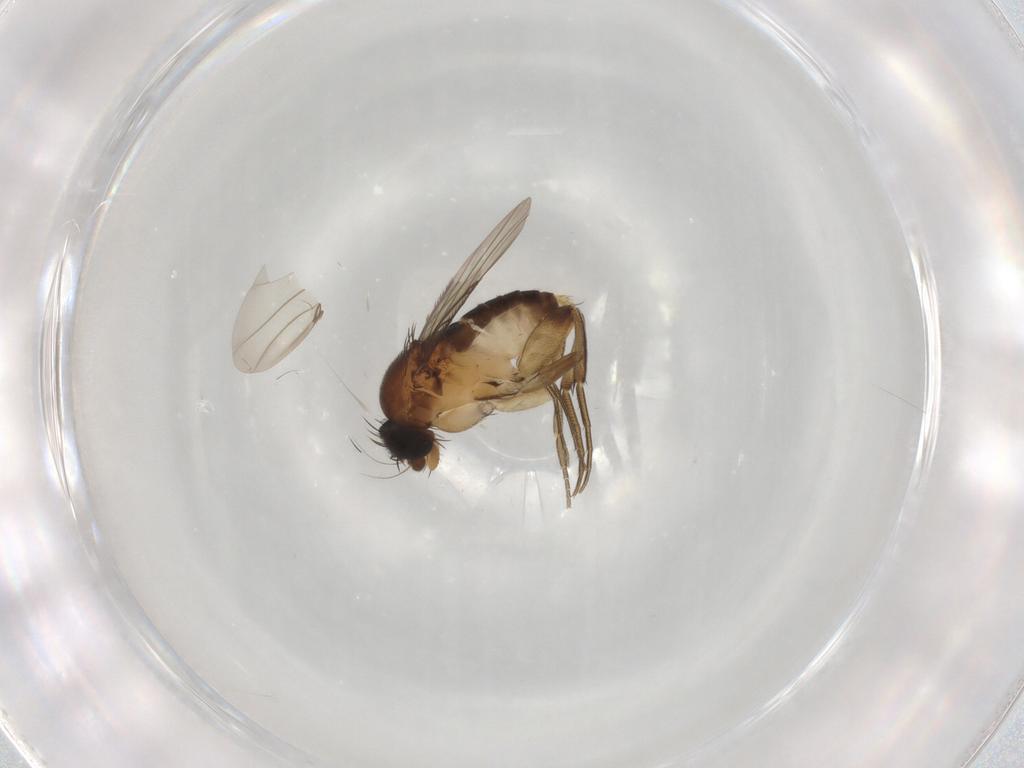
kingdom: Animalia
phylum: Arthropoda
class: Insecta
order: Diptera
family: Phoridae
